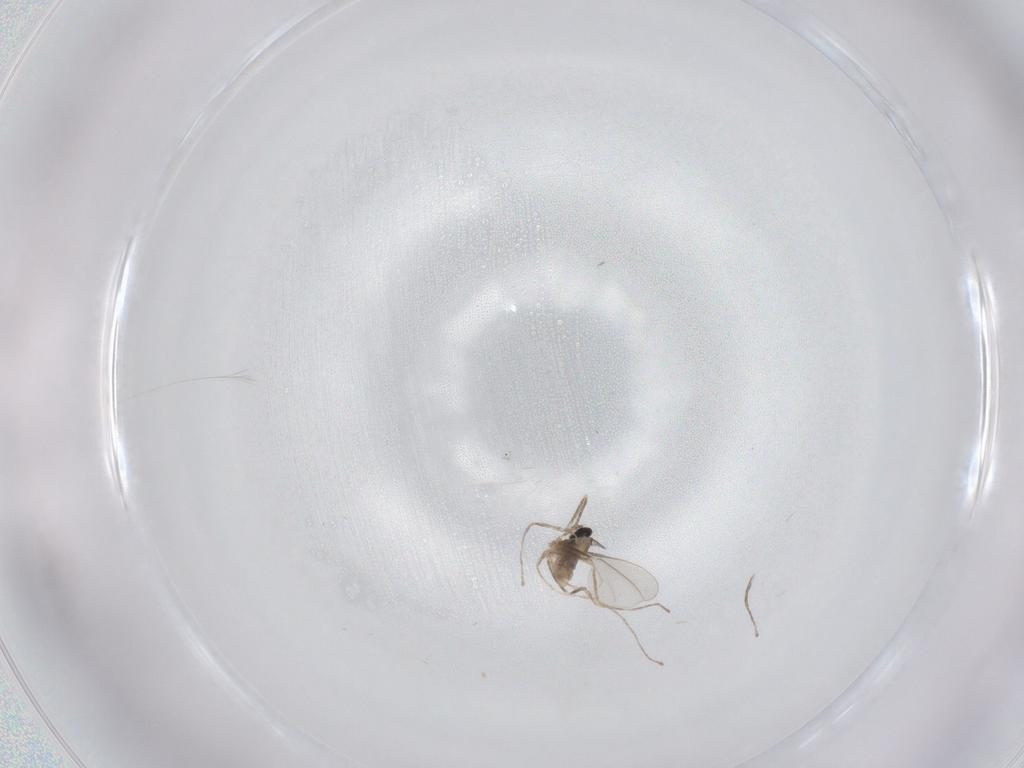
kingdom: Animalia
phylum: Arthropoda
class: Insecta
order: Diptera
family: Cecidomyiidae
